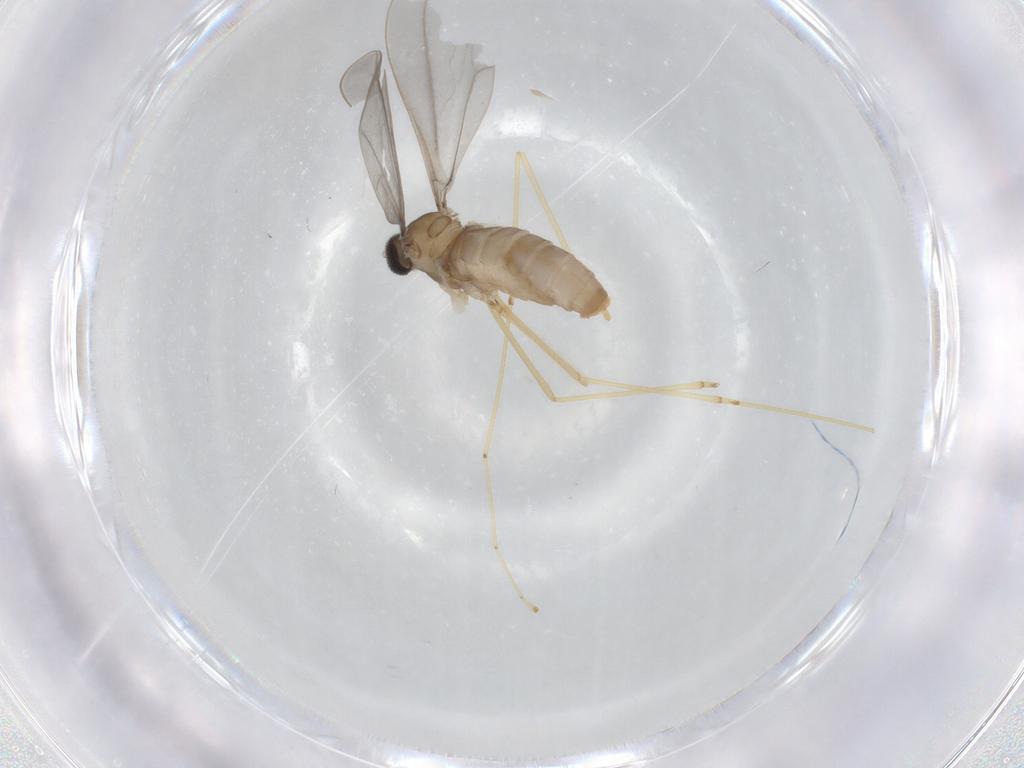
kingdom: Animalia
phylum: Arthropoda
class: Insecta
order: Diptera
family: Cecidomyiidae
